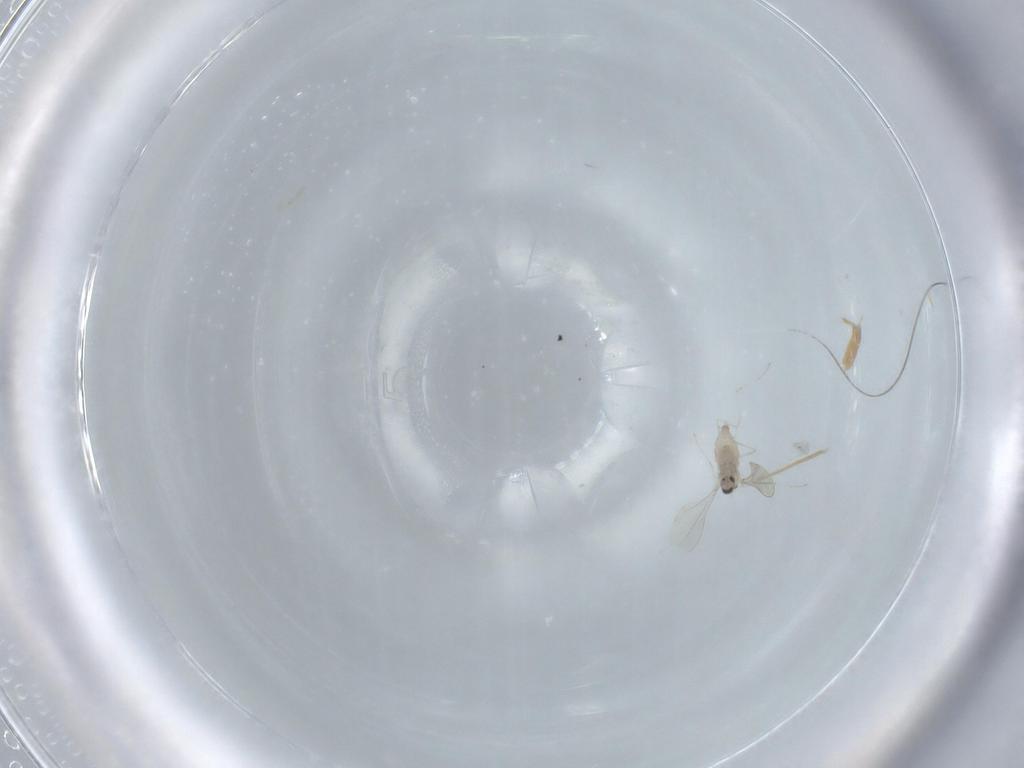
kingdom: Animalia
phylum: Arthropoda
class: Insecta
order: Diptera
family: Cecidomyiidae
